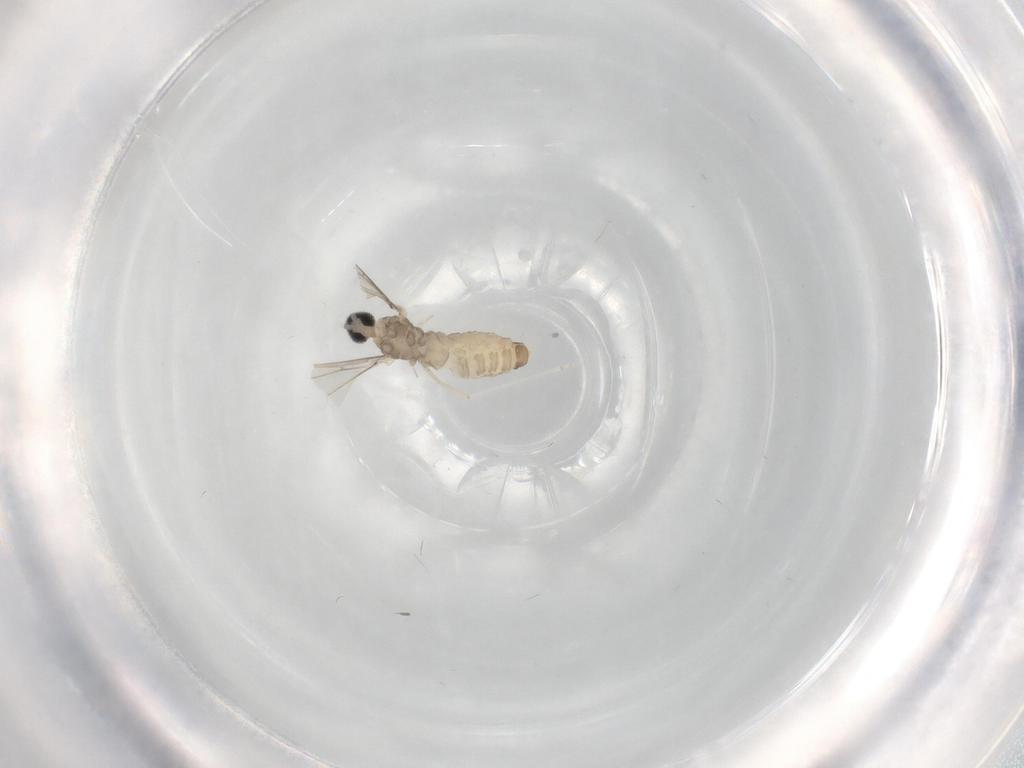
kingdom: Animalia
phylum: Arthropoda
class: Insecta
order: Diptera
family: Cecidomyiidae
